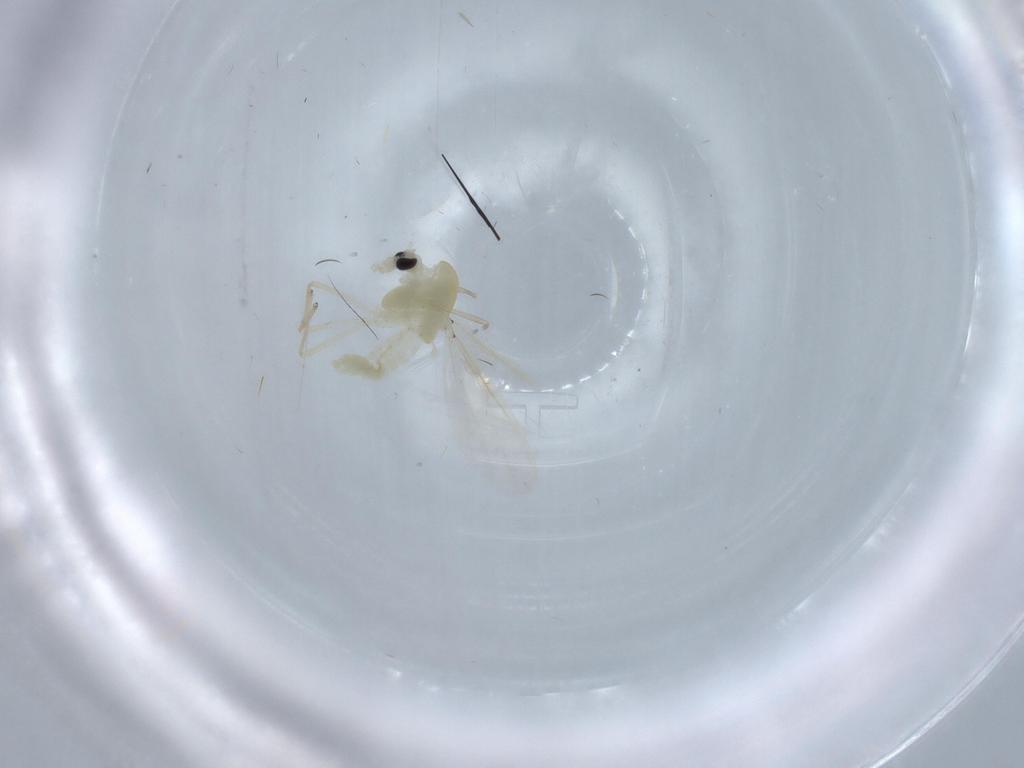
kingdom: Animalia
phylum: Arthropoda
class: Insecta
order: Diptera
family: Chironomidae
